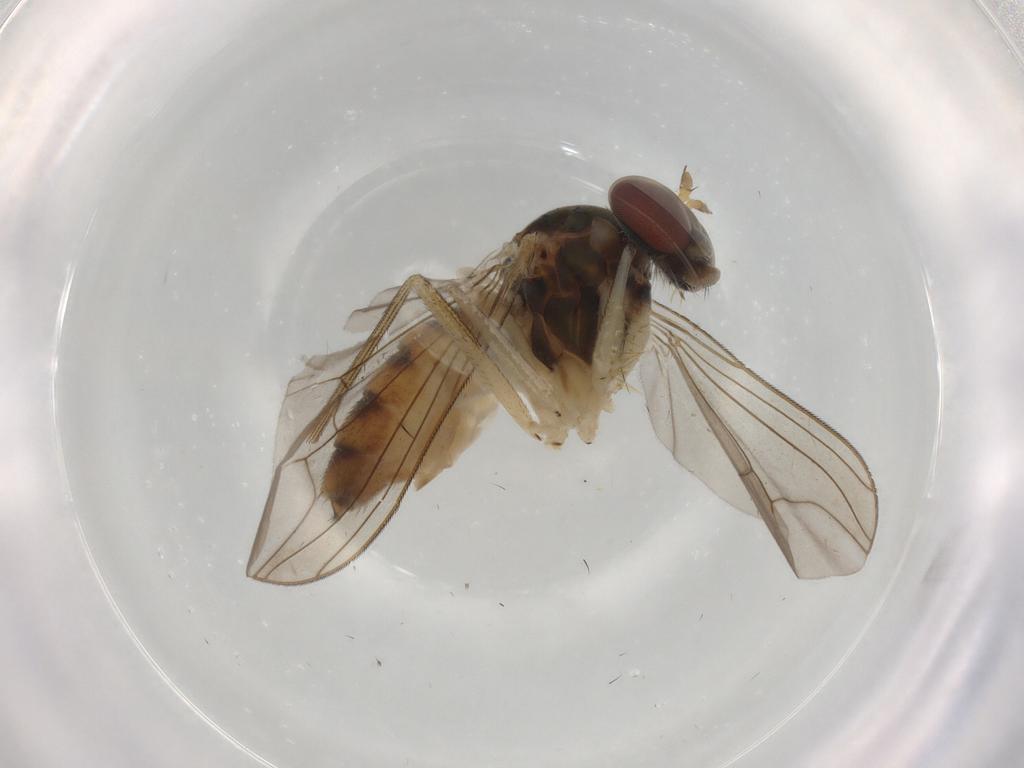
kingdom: Animalia
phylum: Arthropoda
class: Insecta
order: Diptera
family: Dolichopodidae
